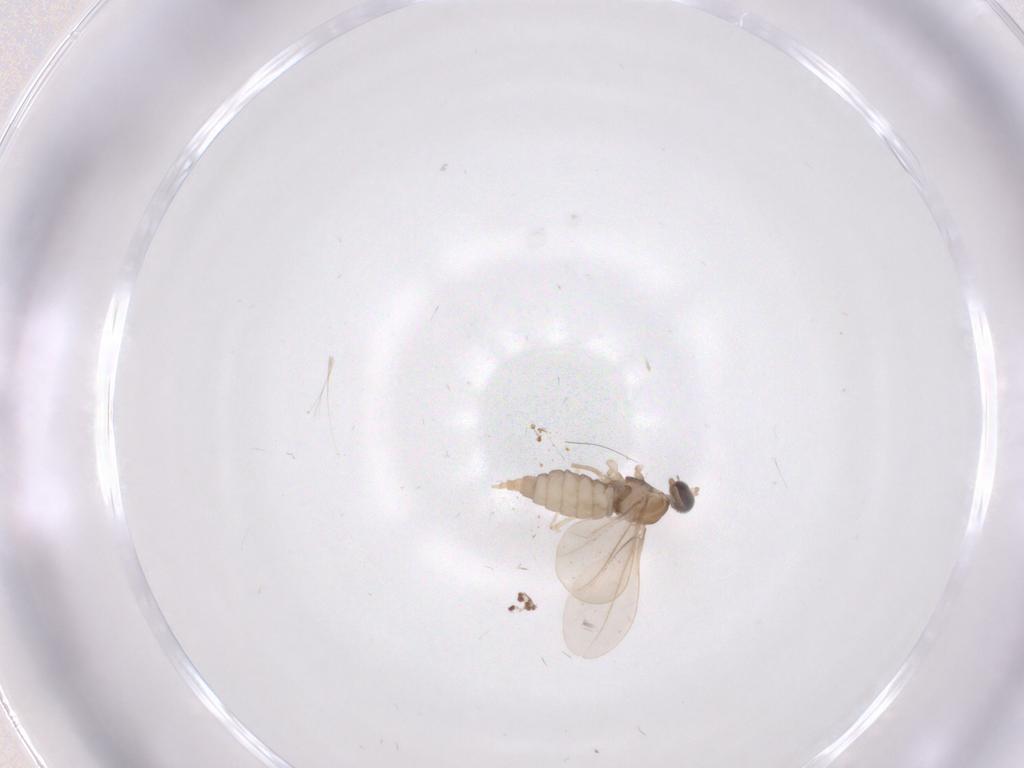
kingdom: Animalia
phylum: Arthropoda
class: Insecta
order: Diptera
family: Cecidomyiidae
